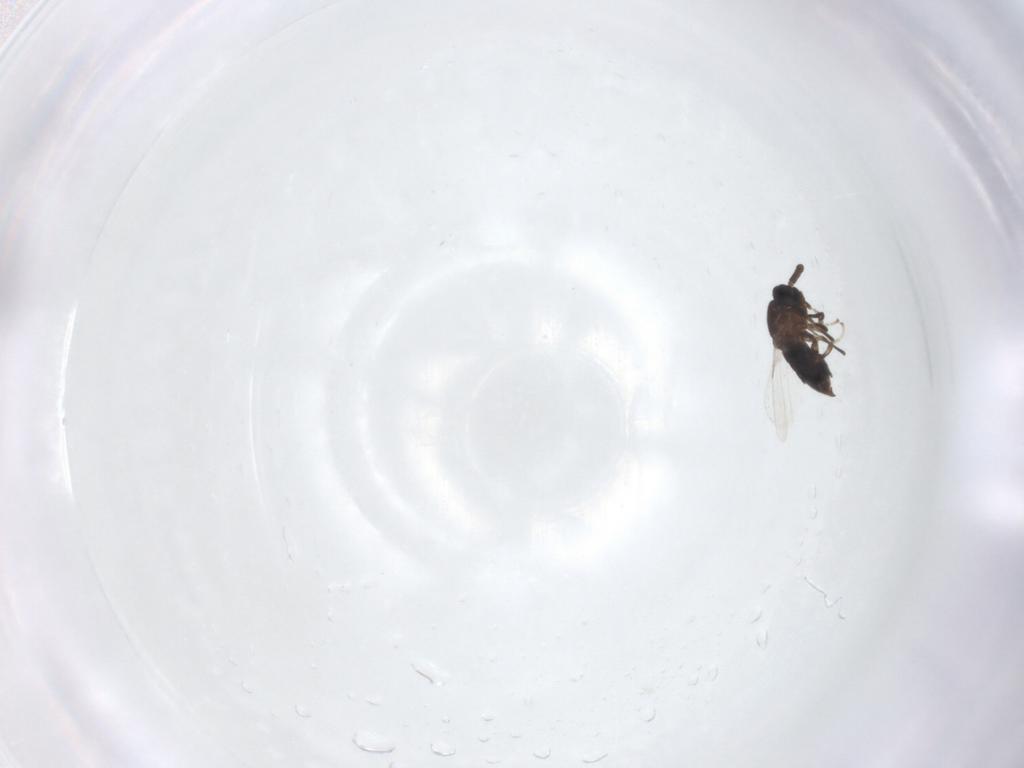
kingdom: Animalia
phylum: Arthropoda
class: Insecta
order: Diptera
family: Scatopsidae
